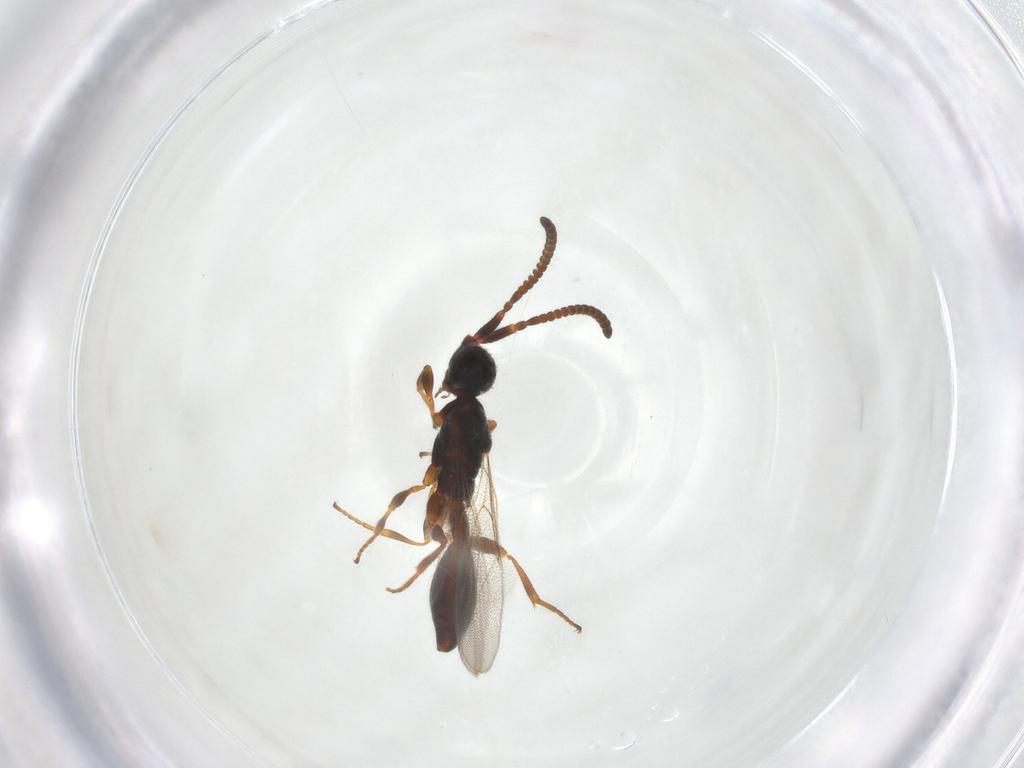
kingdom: Animalia
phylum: Arthropoda
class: Insecta
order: Hymenoptera
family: Diapriidae
